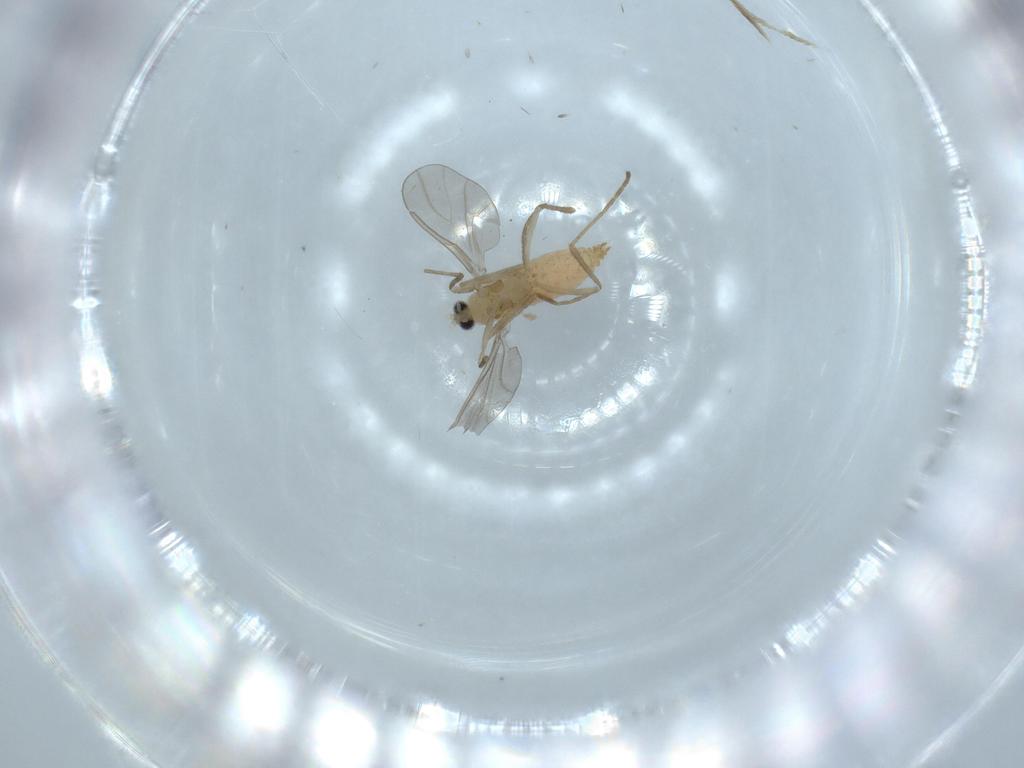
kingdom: Animalia
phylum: Arthropoda
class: Insecta
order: Diptera
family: Cecidomyiidae
